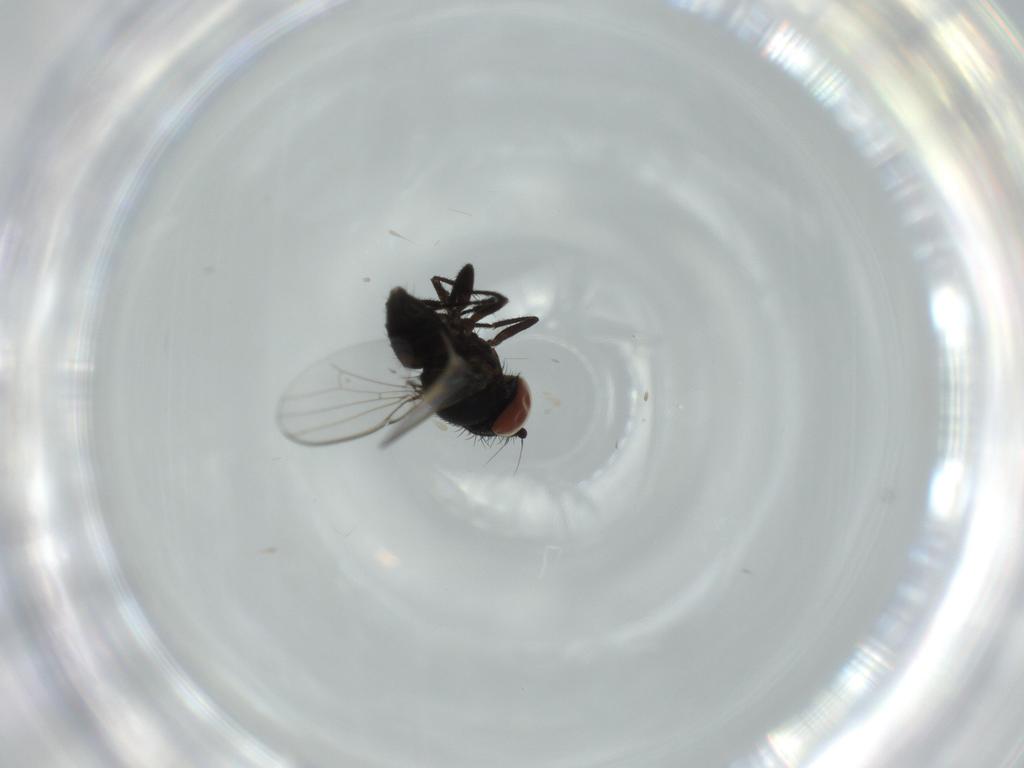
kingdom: Animalia
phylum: Arthropoda
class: Insecta
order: Diptera
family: Milichiidae
